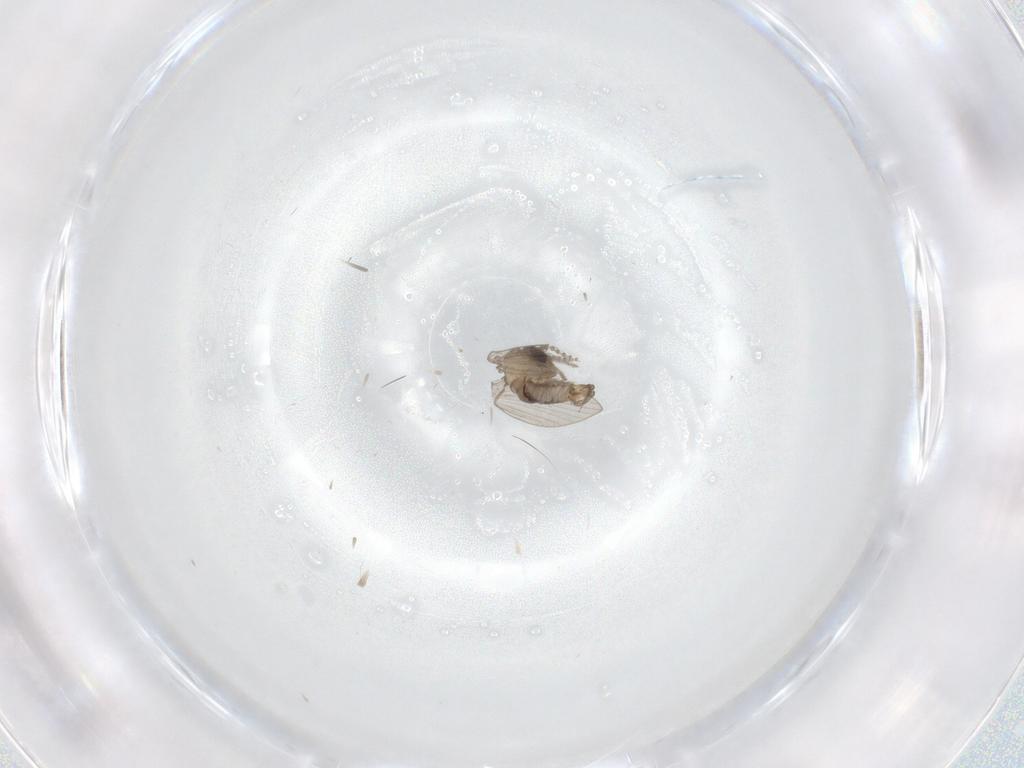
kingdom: Animalia
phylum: Arthropoda
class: Insecta
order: Diptera
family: Psychodidae
